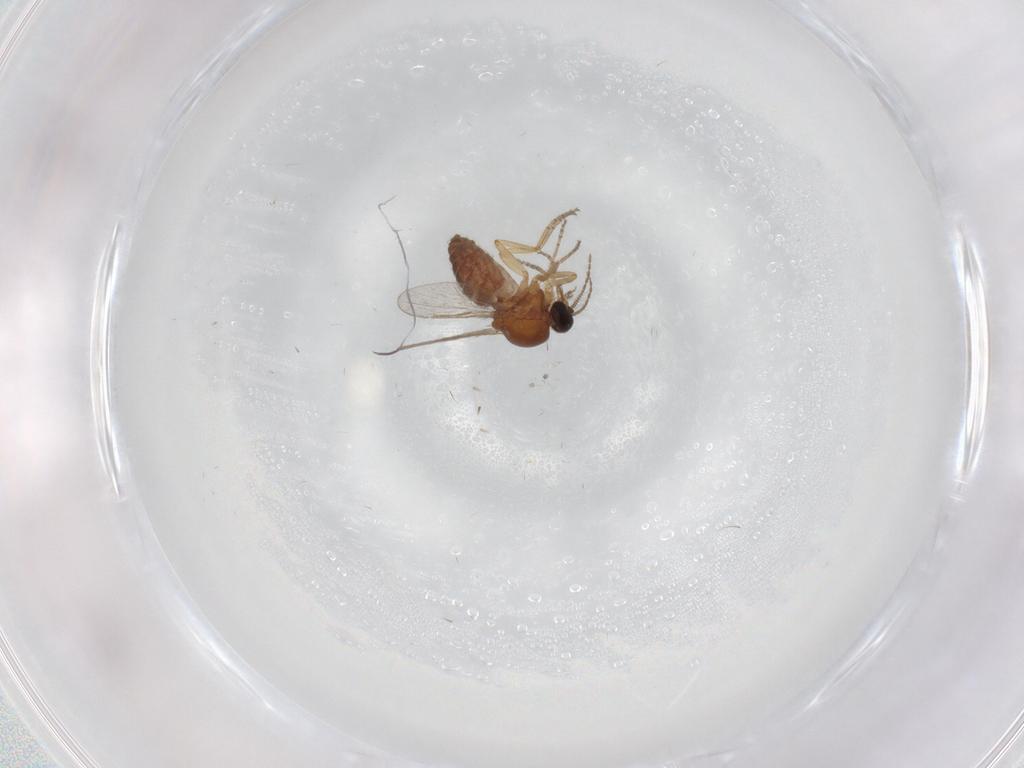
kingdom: Animalia
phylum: Arthropoda
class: Insecta
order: Diptera
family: Ceratopogonidae
